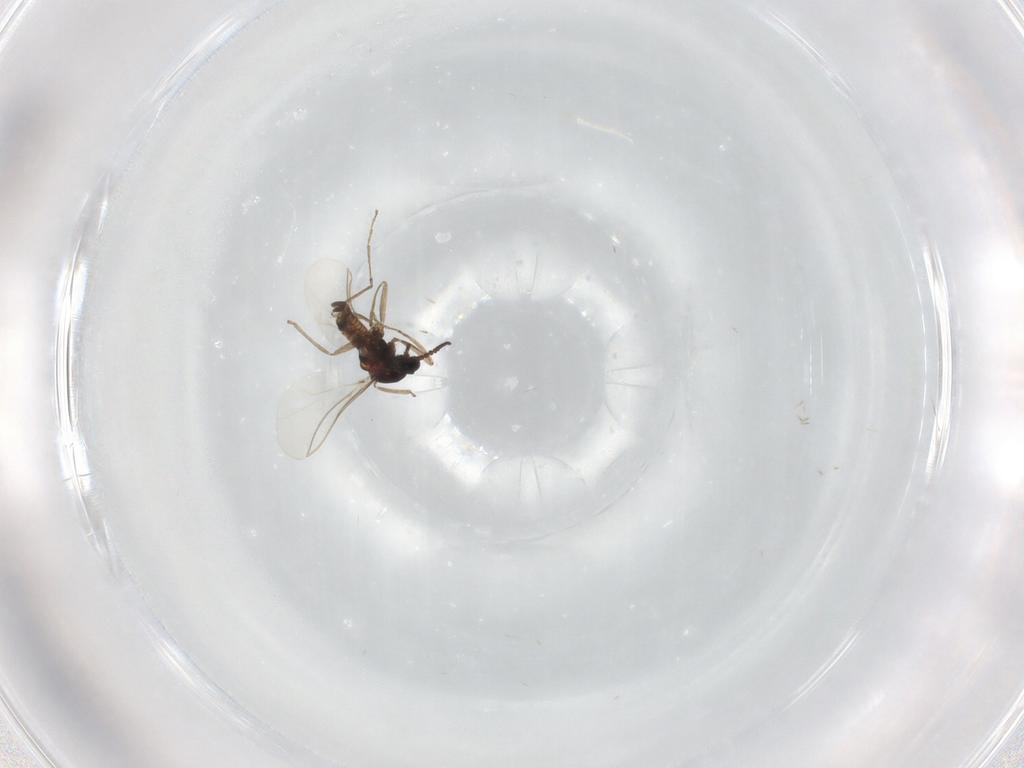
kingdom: Animalia
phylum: Arthropoda
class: Insecta
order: Diptera
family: Cecidomyiidae
